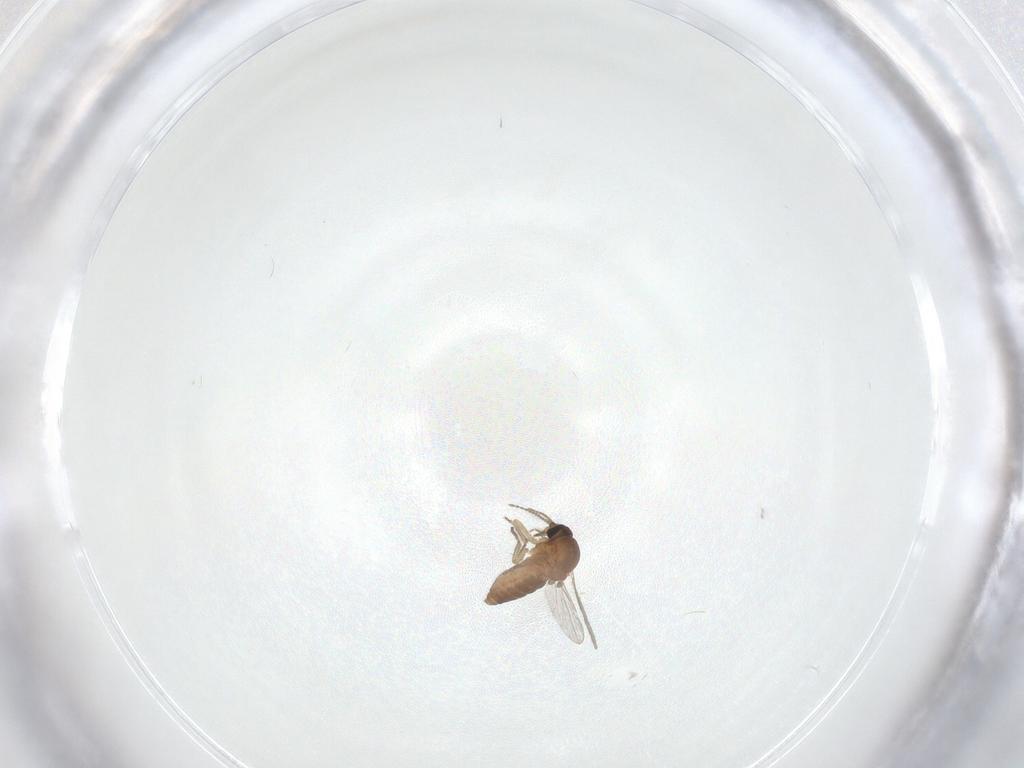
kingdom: Animalia
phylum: Arthropoda
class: Insecta
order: Diptera
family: Ceratopogonidae
